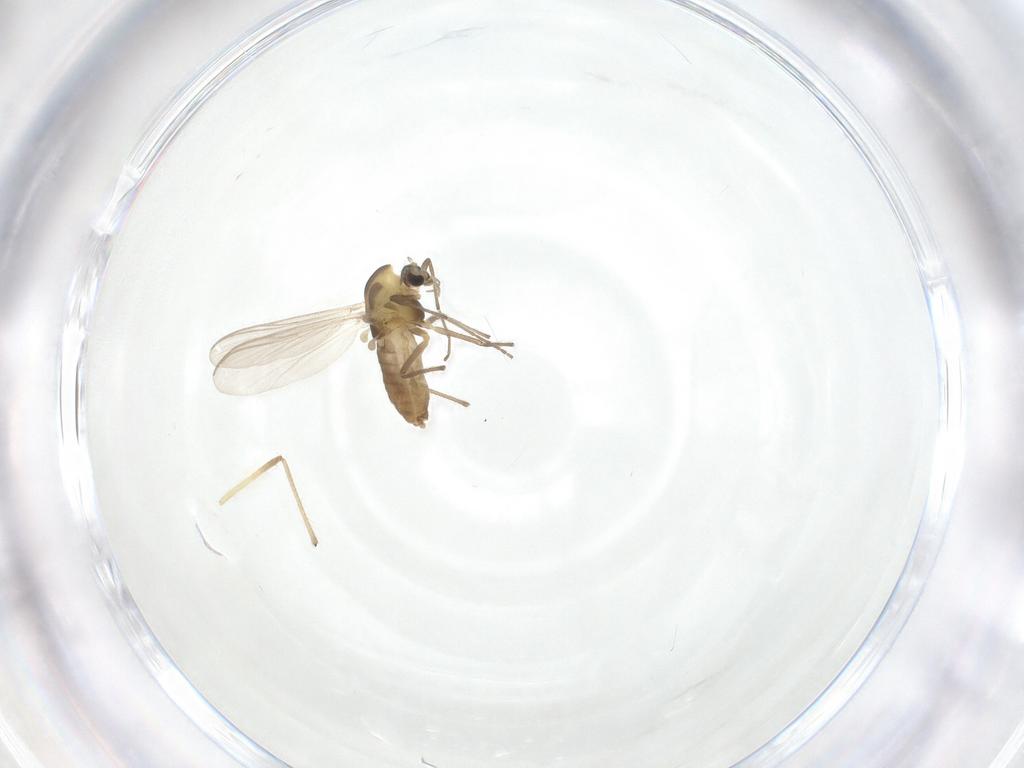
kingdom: Animalia
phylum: Arthropoda
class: Insecta
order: Diptera
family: Chironomidae
